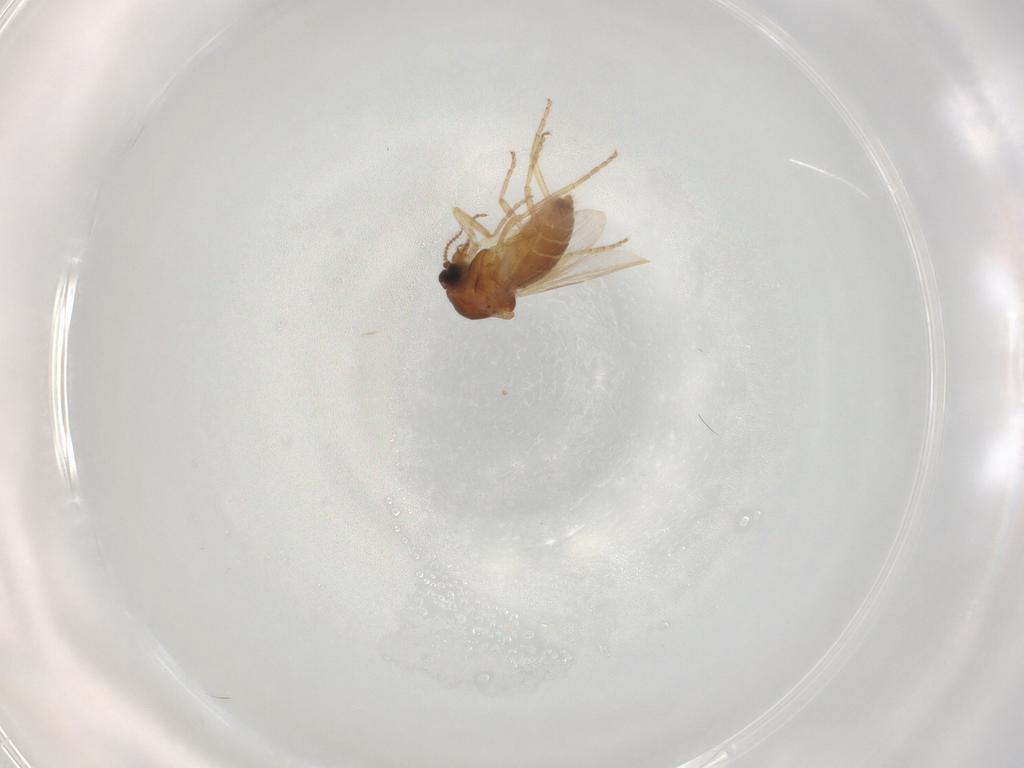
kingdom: Animalia
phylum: Arthropoda
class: Insecta
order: Diptera
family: Ceratopogonidae
